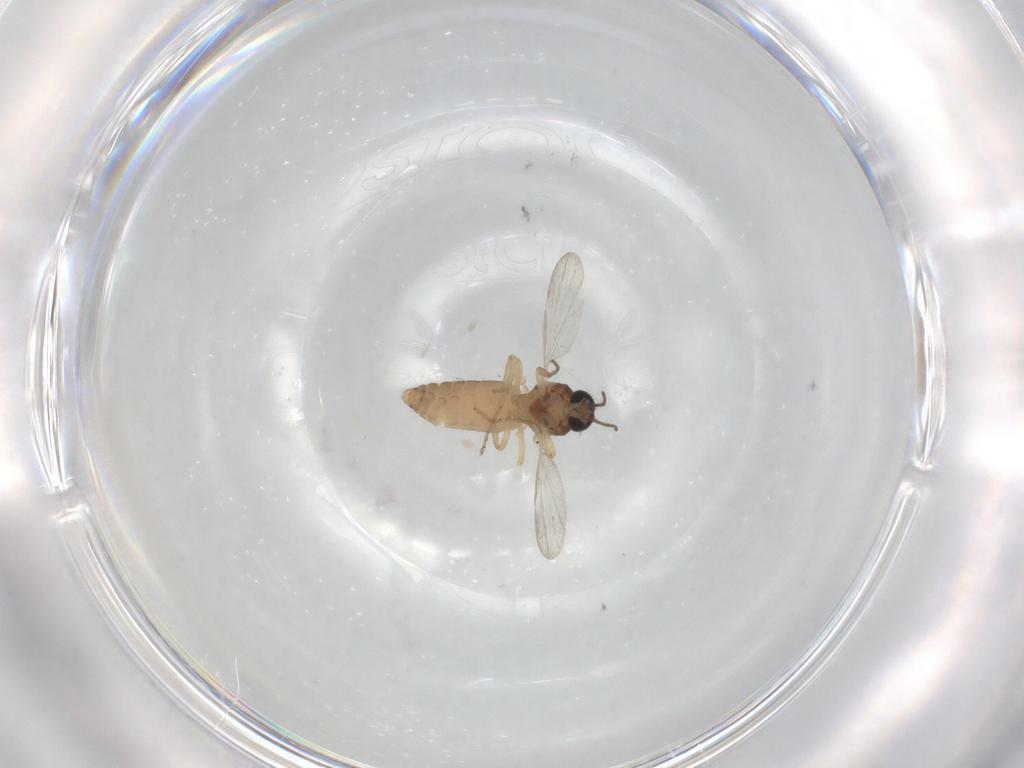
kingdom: Animalia
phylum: Arthropoda
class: Insecta
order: Diptera
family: Ceratopogonidae
